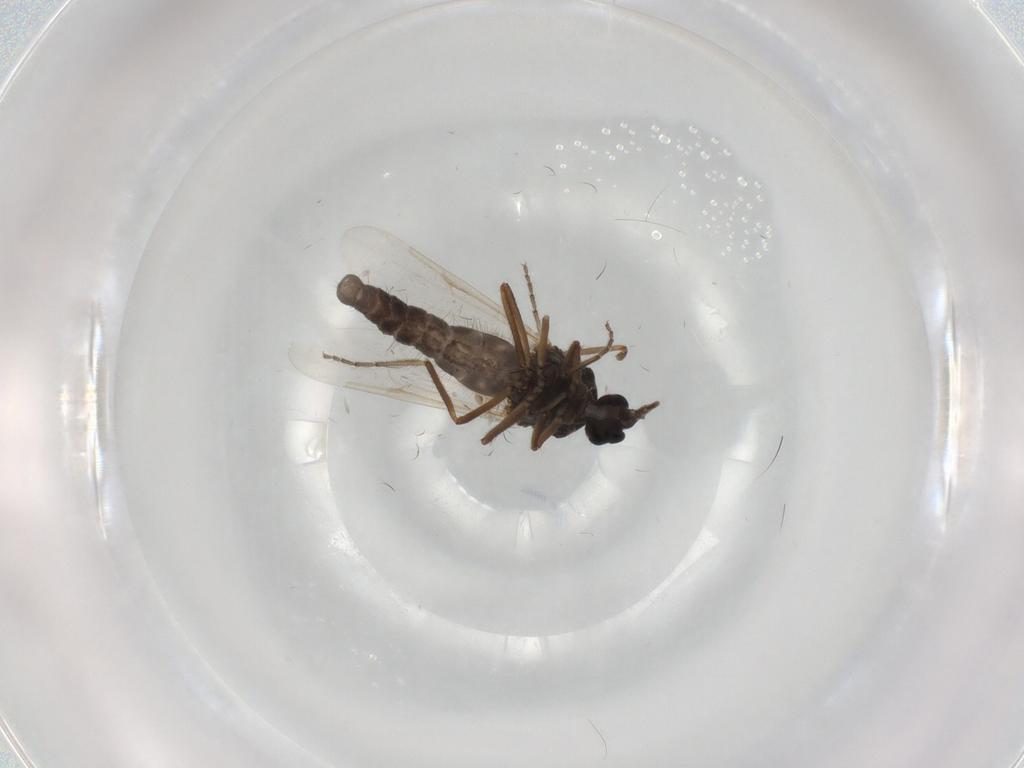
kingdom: Animalia
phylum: Arthropoda
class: Insecta
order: Diptera
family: Ceratopogonidae
